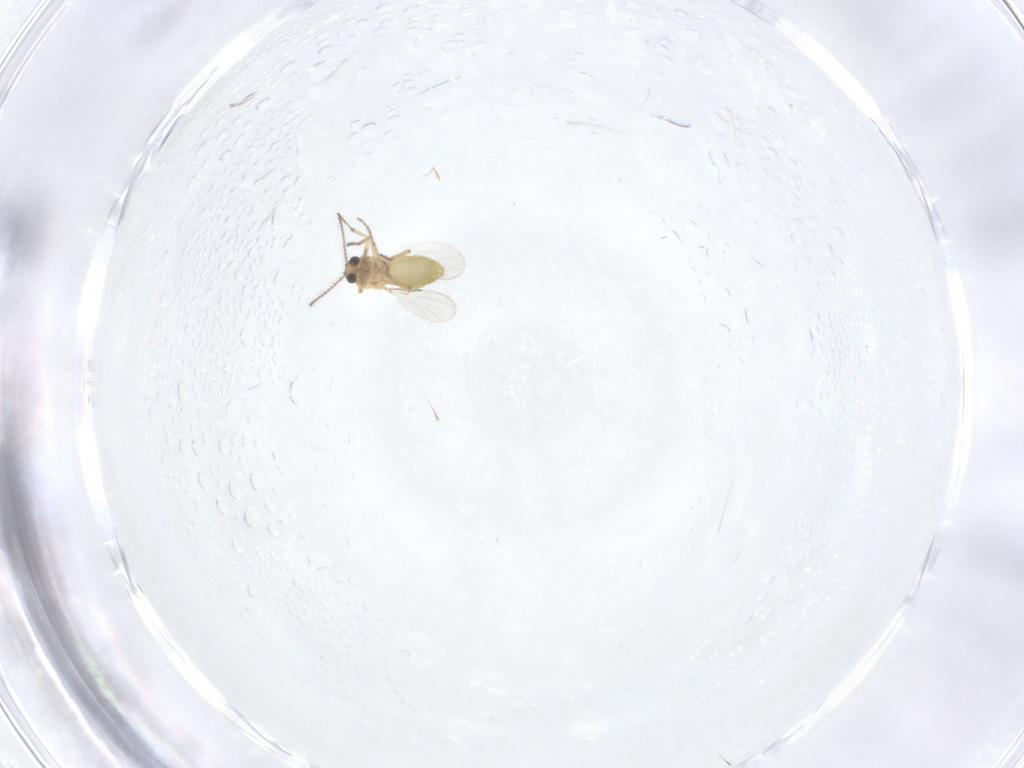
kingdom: Animalia
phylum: Arthropoda
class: Insecta
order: Diptera
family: Ceratopogonidae
